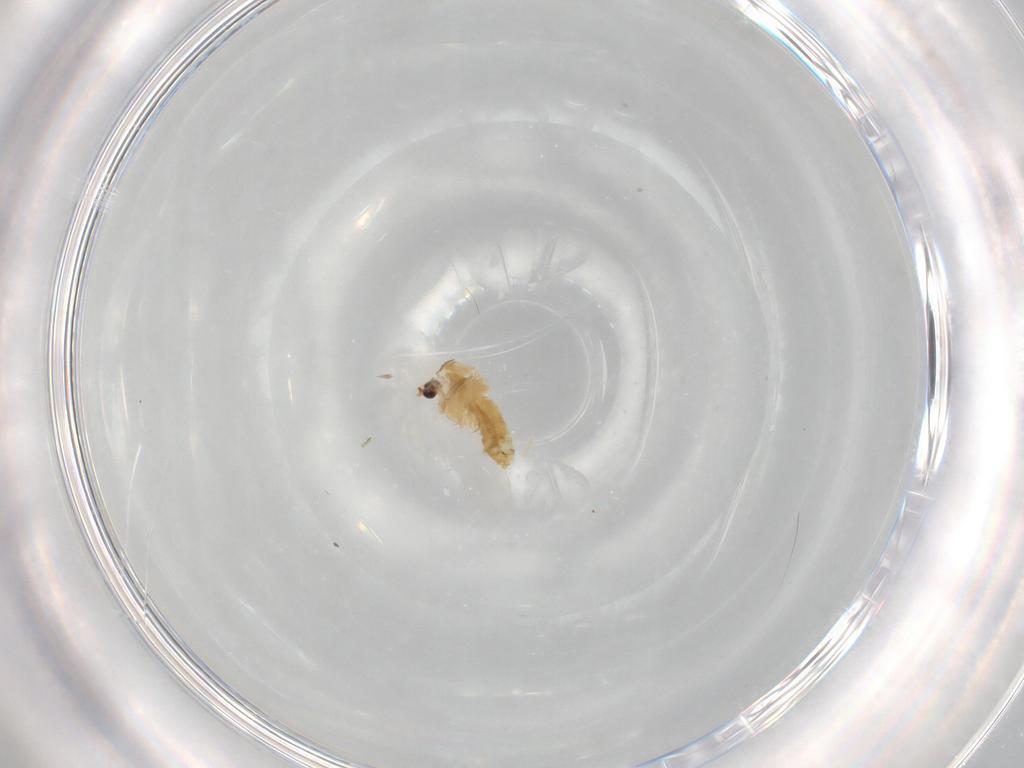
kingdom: Animalia
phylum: Arthropoda
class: Insecta
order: Diptera
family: Chironomidae
